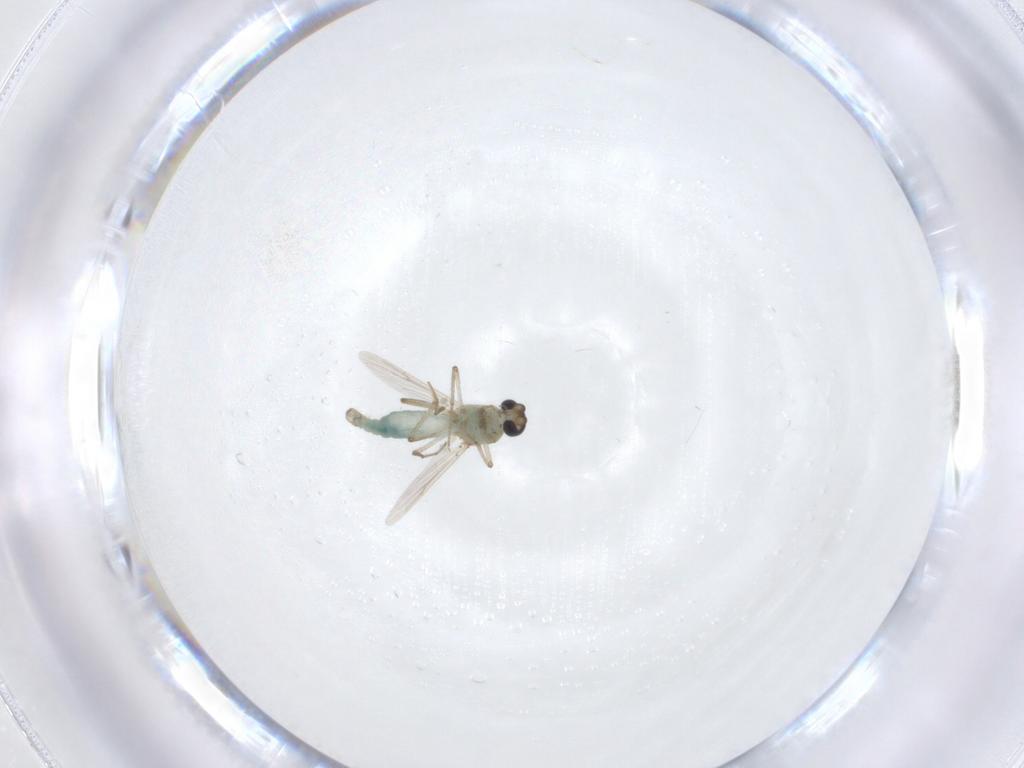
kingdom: Animalia
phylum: Arthropoda
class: Insecta
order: Diptera
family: Ceratopogonidae
